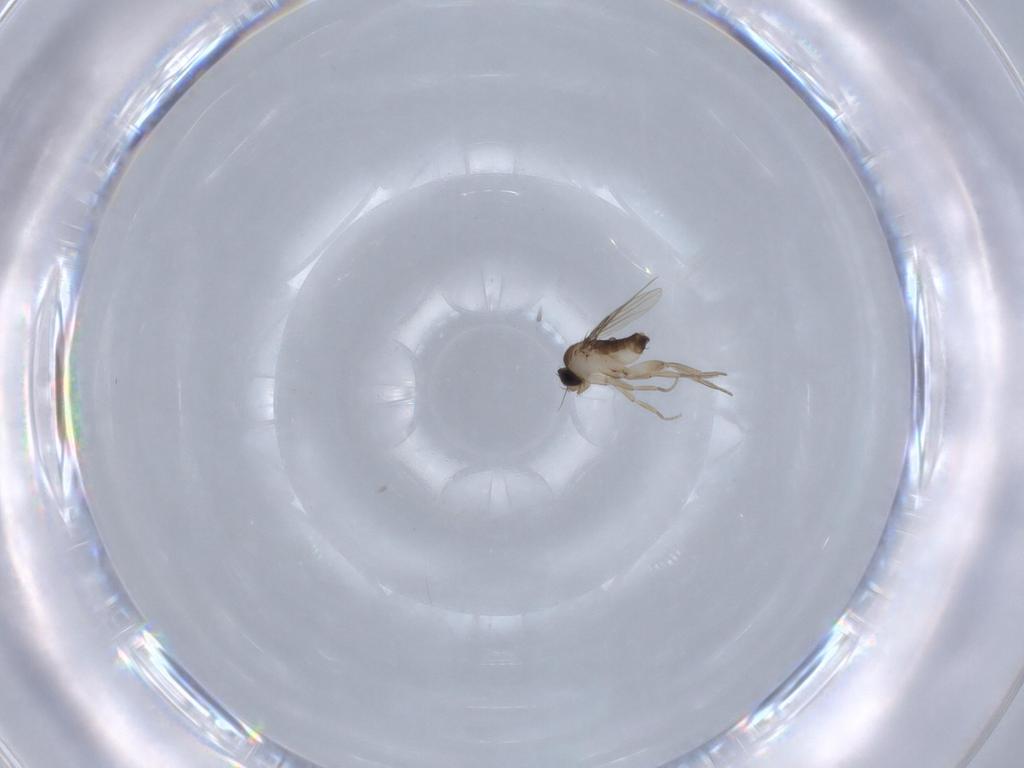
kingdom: Animalia
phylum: Arthropoda
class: Insecta
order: Diptera
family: Phoridae
